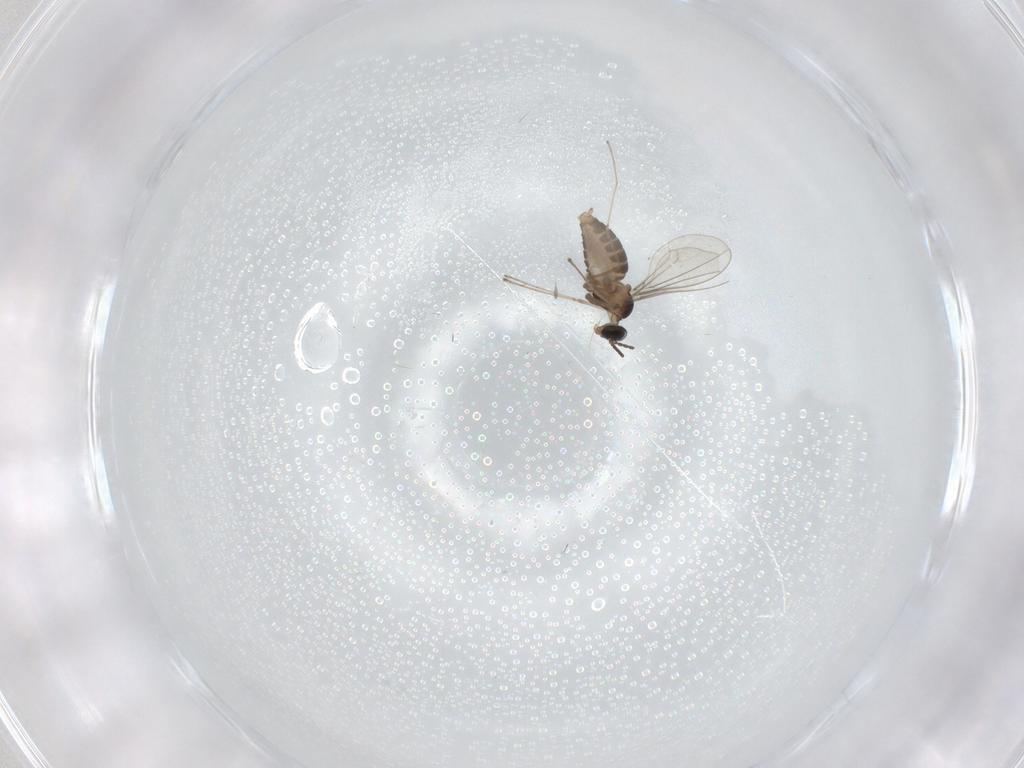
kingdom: Animalia
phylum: Arthropoda
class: Insecta
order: Diptera
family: Cecidomyiidae
